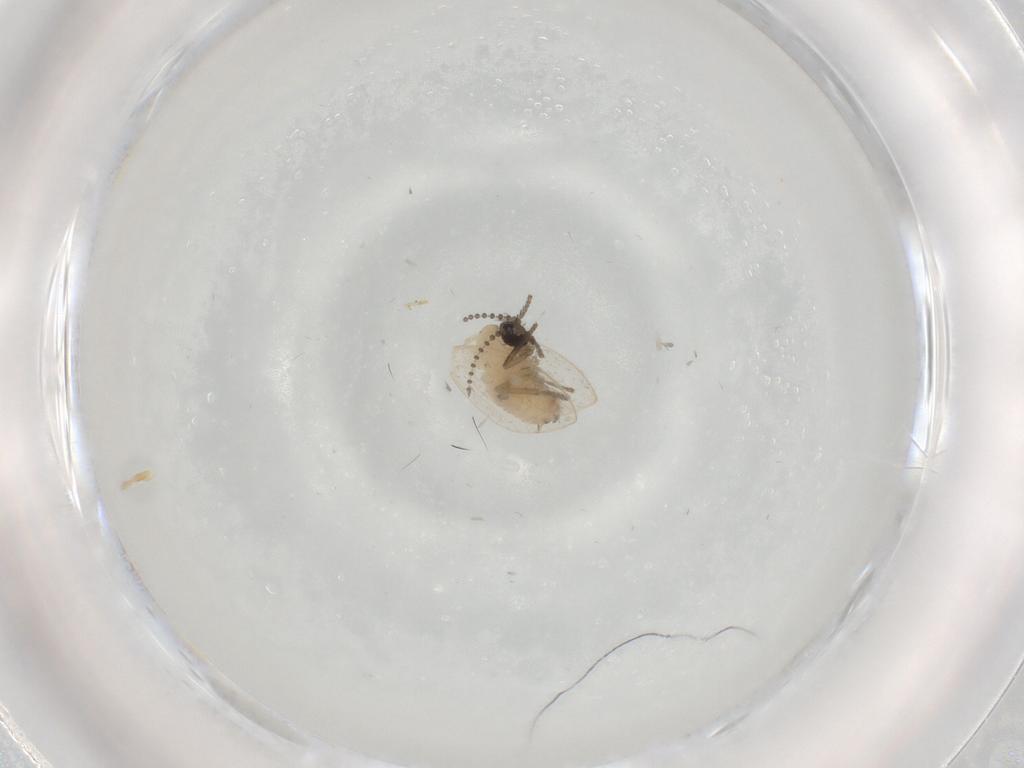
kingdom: Animalia
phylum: Arthropoda
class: Insecta
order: Diptera
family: Psychodidae
